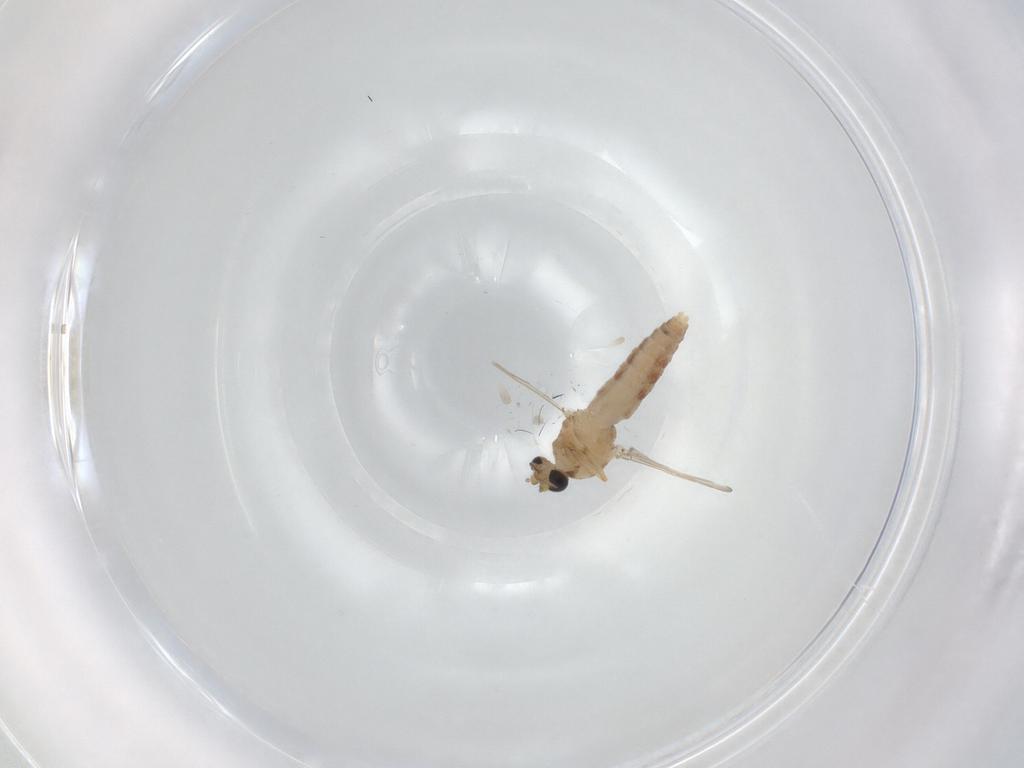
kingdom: Animalia
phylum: Arthropoda
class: Insecta
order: Diptera
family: Ceratopogonidae
